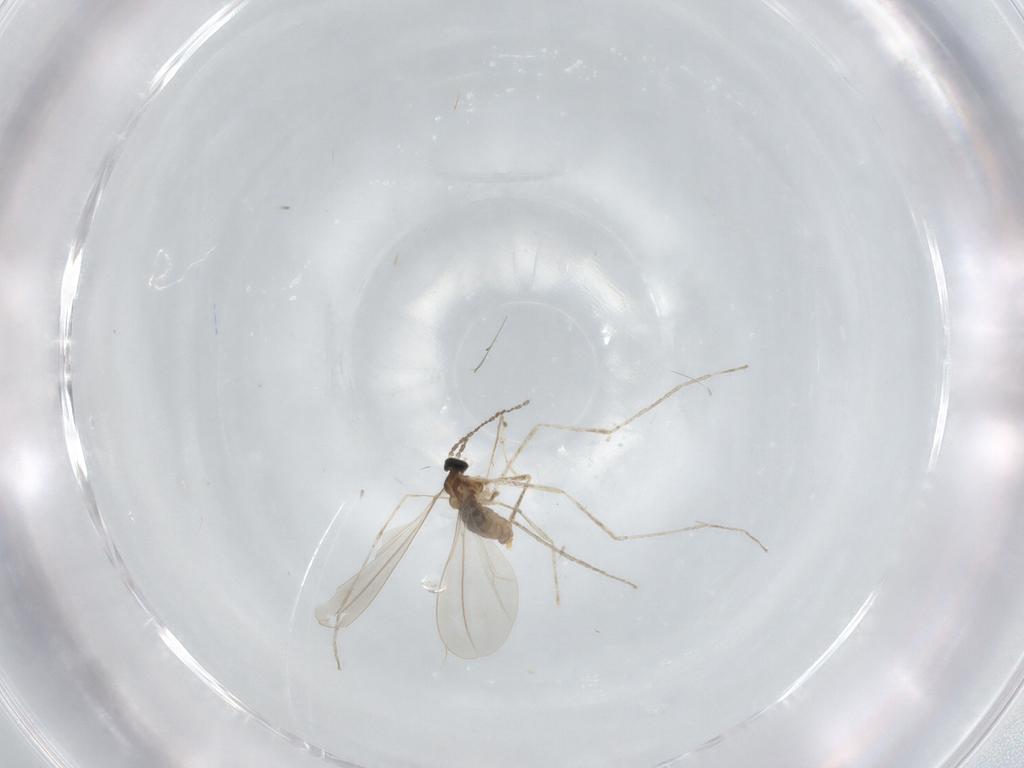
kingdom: Animalia
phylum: Arthropoda
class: Insecta
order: Diptera
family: Cecidomyiidae
